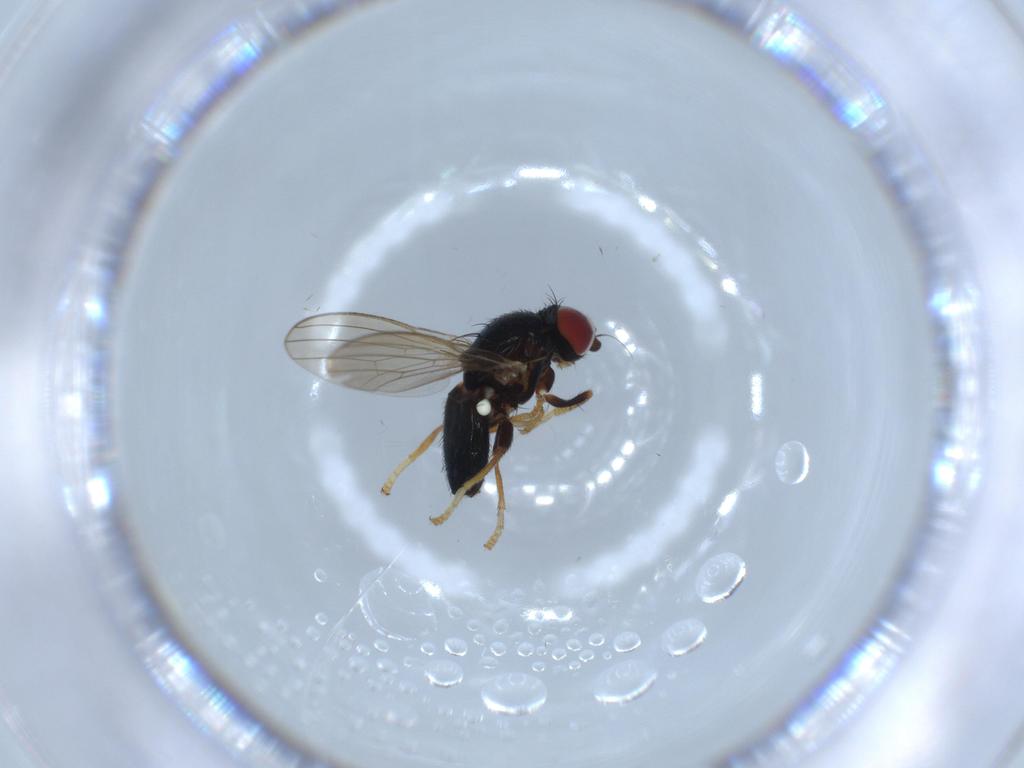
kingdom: Animalia
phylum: Arthropoda
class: Insecta
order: Diptera
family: Chamaemyiidae
